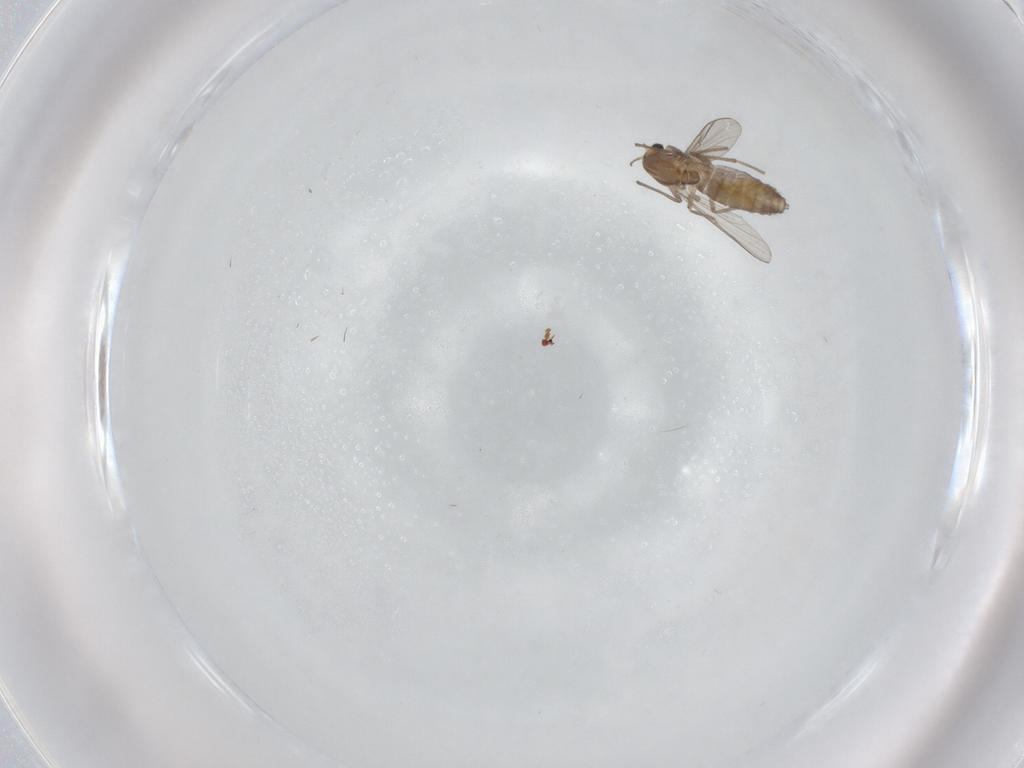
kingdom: Animalia
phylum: Arthropoda
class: Insecta
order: Diptera
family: Chironomidae
